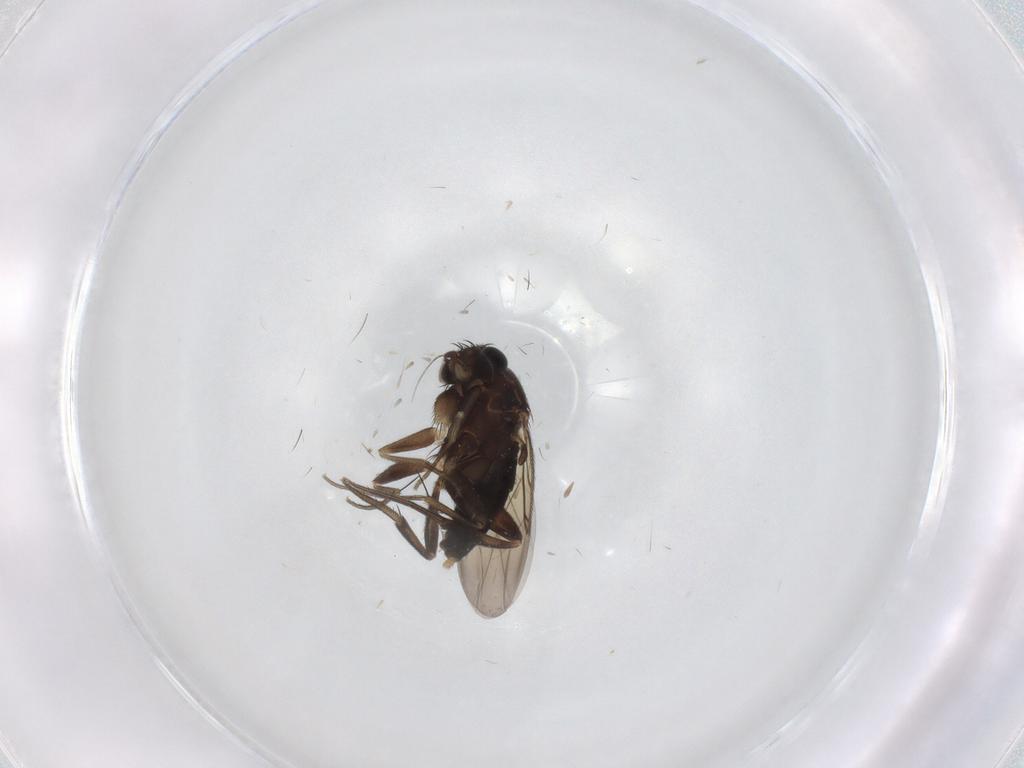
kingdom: Animalia
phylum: Arthropoda
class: Insecta
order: Diptera
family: Phoridae
